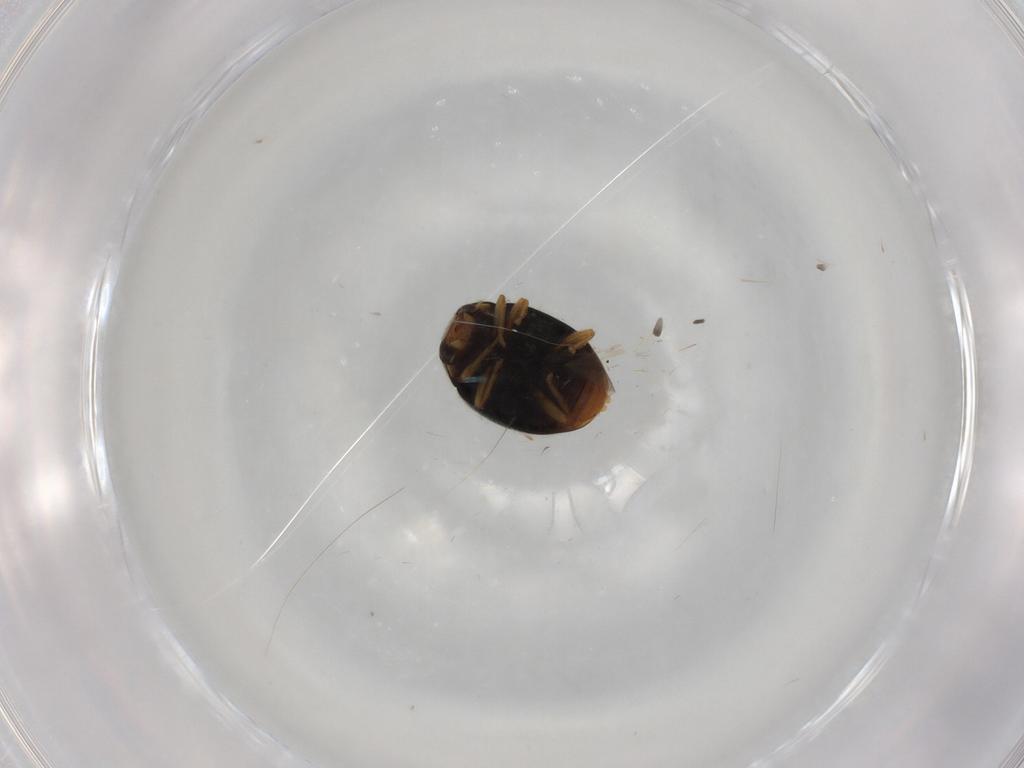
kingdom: Animalia
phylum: Arthropoda
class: Insecta
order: Coleoptera
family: Coccinellidae
